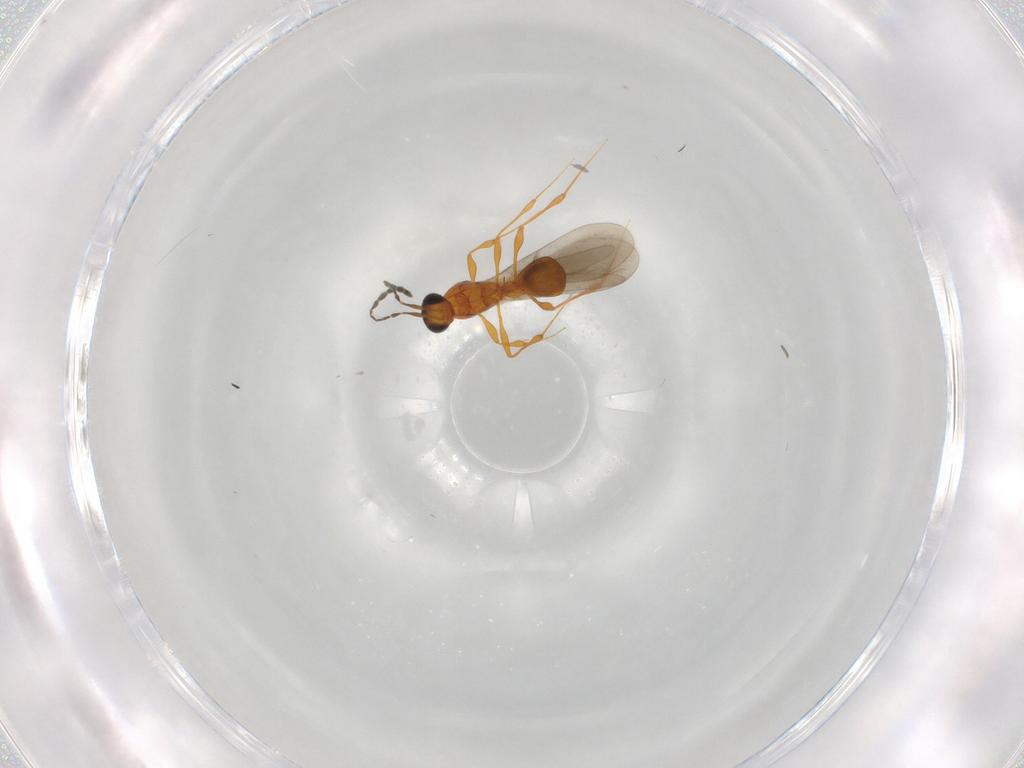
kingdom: Animalia
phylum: Arthropoda
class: Insecta
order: Hymenoptera
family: Platygastridae
